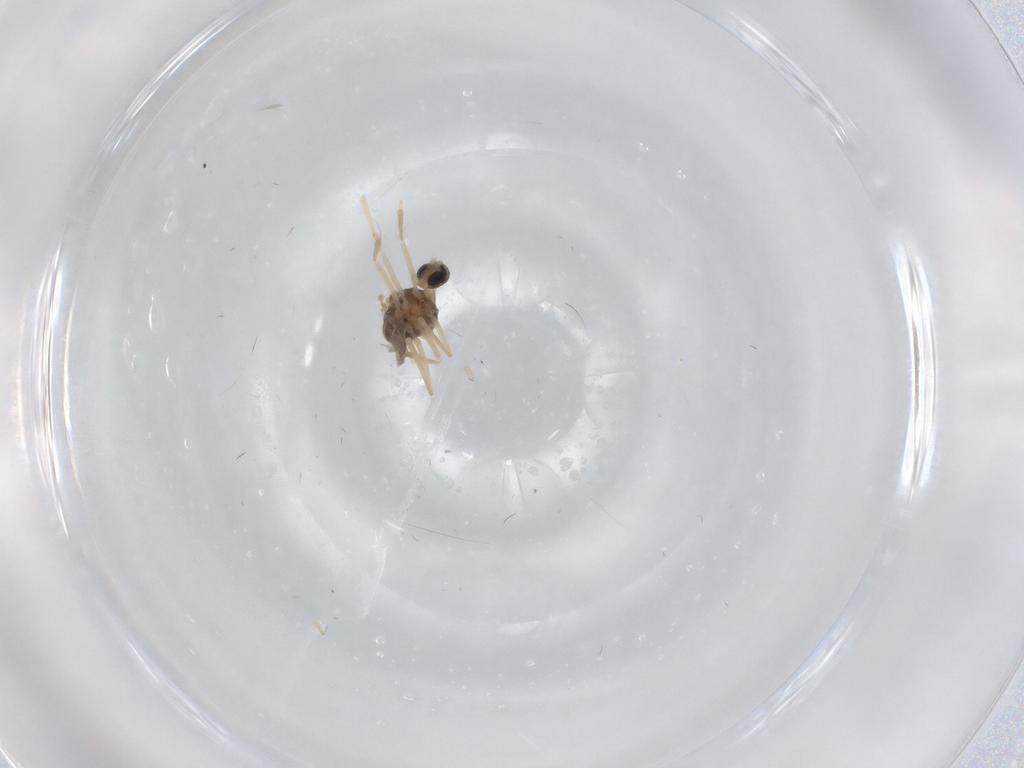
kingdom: Animalia
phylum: Arthropoda
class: Insecta
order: Diptera
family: Cecidomyiidae
